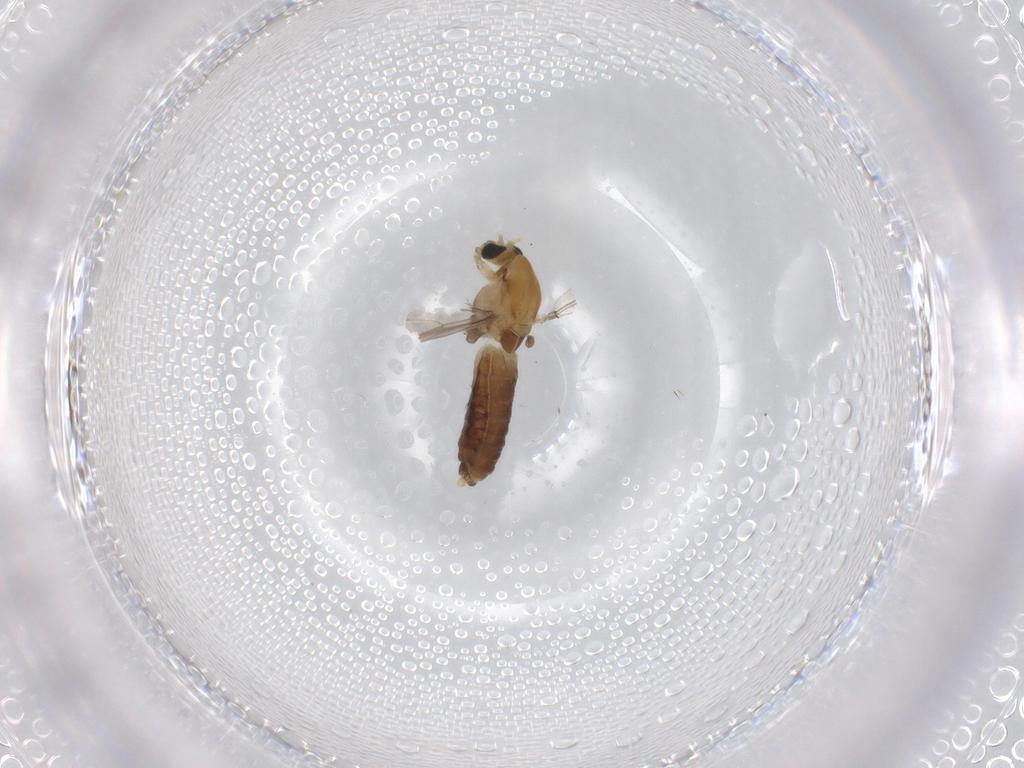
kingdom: Animalia
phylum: Arthropoda
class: Insecta
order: Diptera
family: Chironomidae
